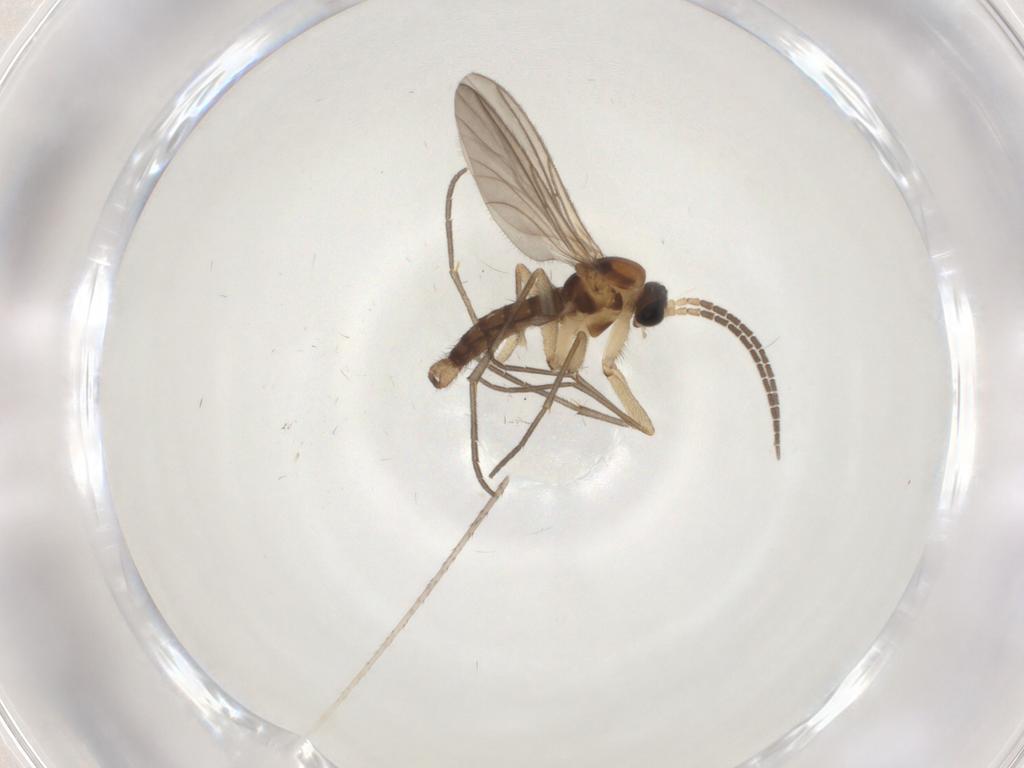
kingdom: Animalia
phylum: Arthropoda
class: Insecta
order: Diptera
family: Sciaridae
